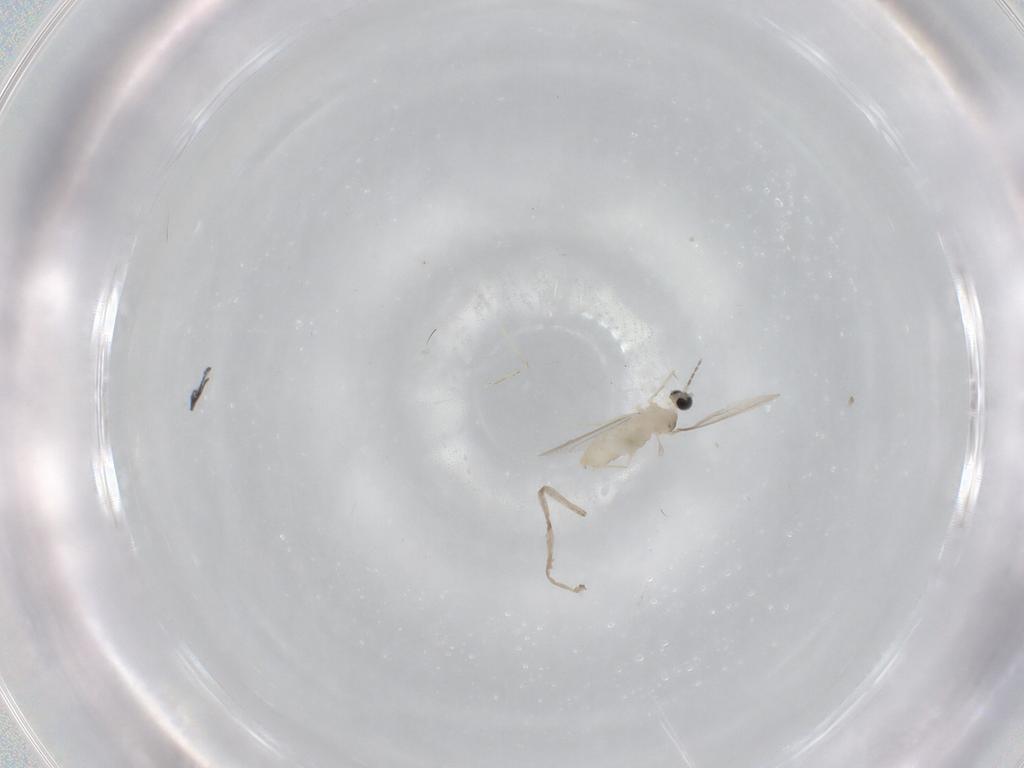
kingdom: Animalia
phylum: Arthropoda
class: Insecta
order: Diptera
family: Cecidomyiidae
